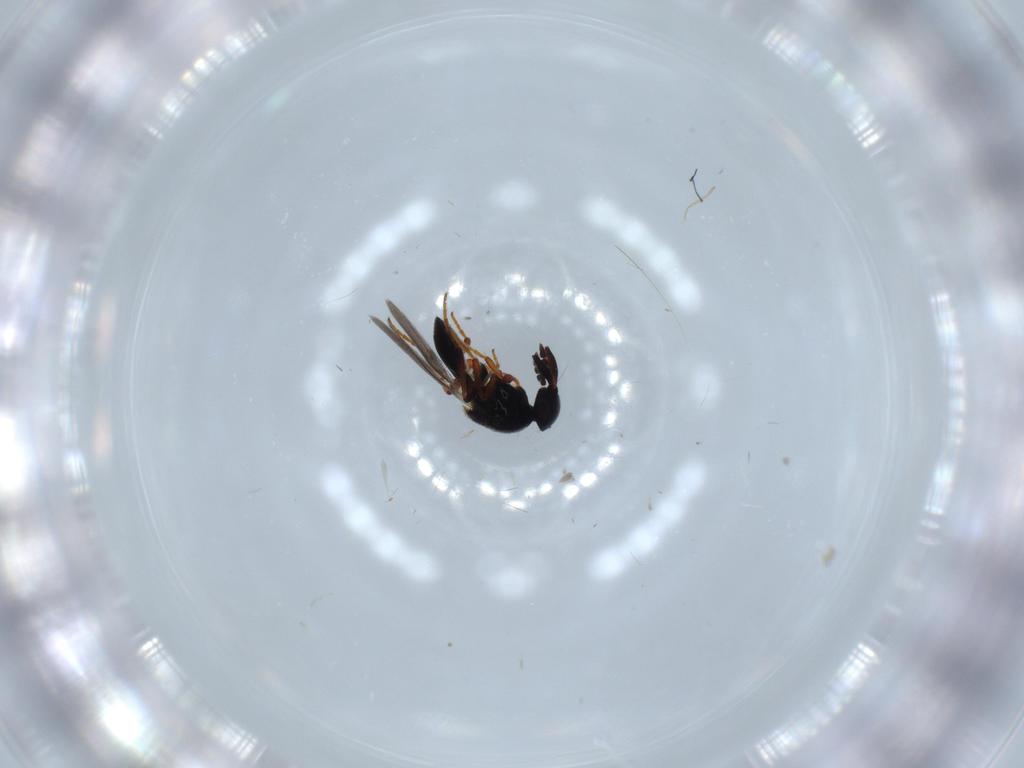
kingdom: Animalia
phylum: Arthropoda
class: Insecta
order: Hymenoptera
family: Platygastridae
